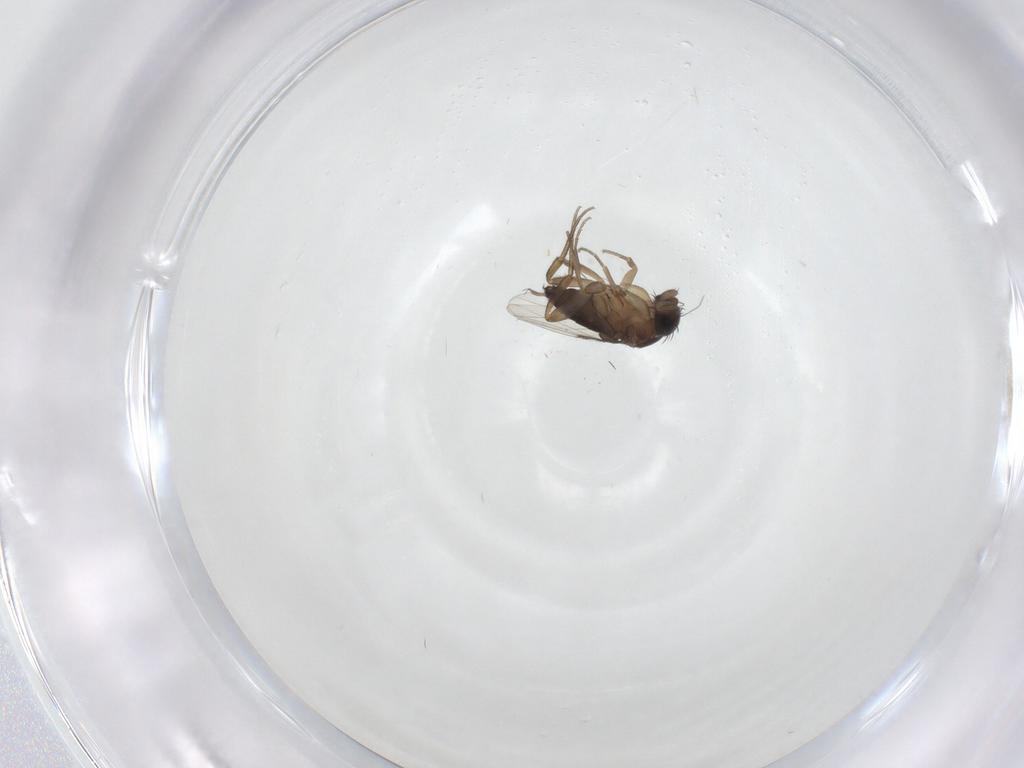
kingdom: Animalia
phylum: Arthropoda
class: Insecta
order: Diptera
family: Phoridae
